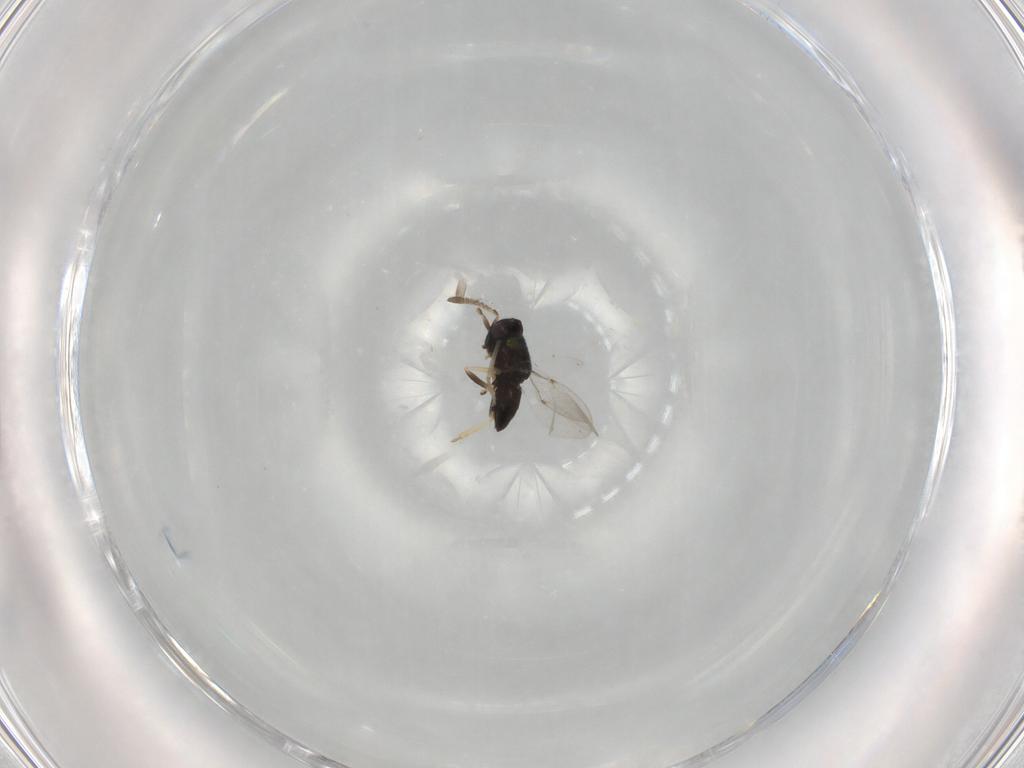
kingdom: Animalia
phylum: Arthropoda
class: Insecta
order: Hymenoptera
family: Encyrtidae
